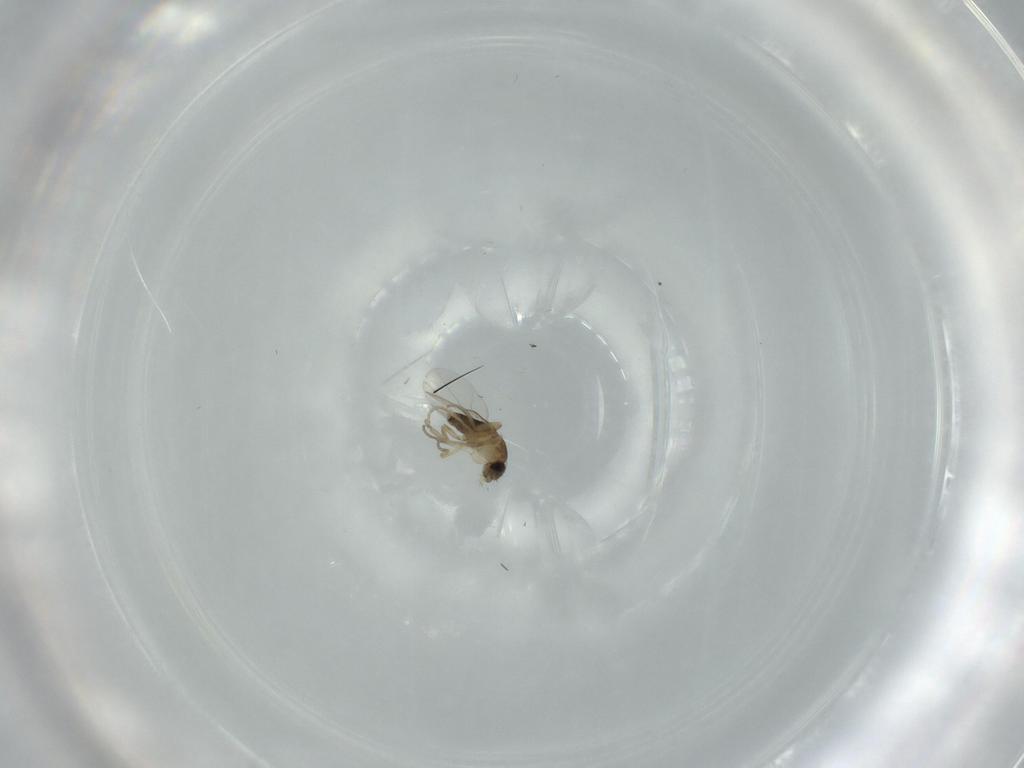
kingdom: Animalia
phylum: Arthropoda
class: Insecta
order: Diptera
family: Phoridae
